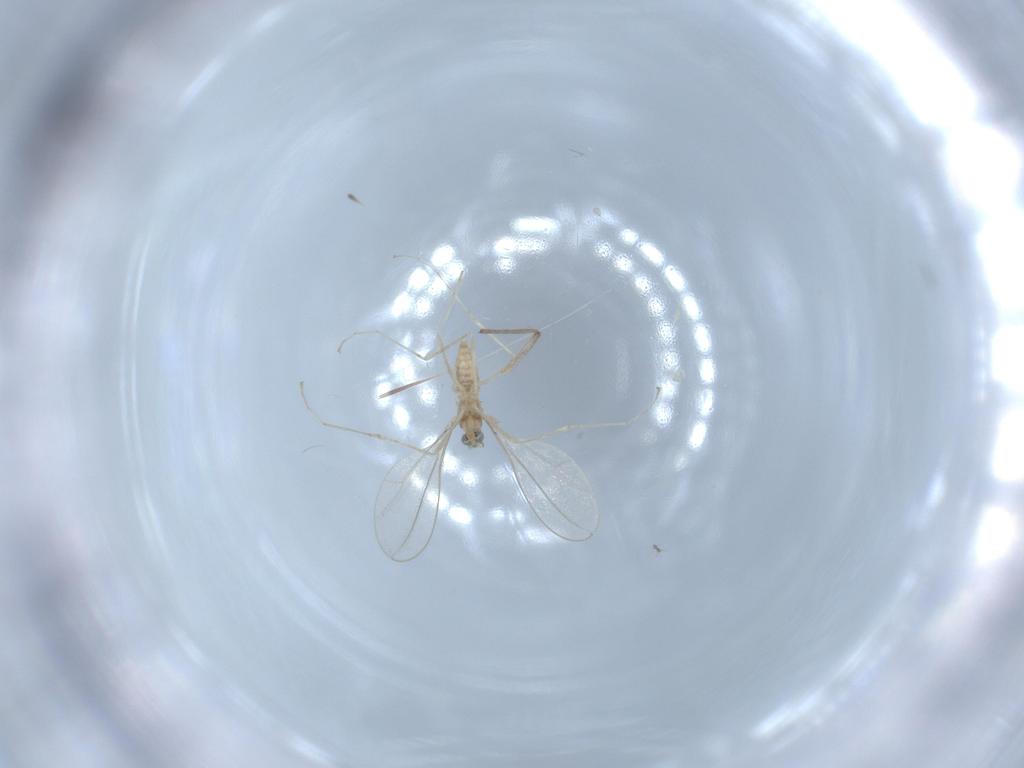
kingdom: Animalia
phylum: Arthropoda
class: Insecta
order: Diptera
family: Cecidomyiidae
